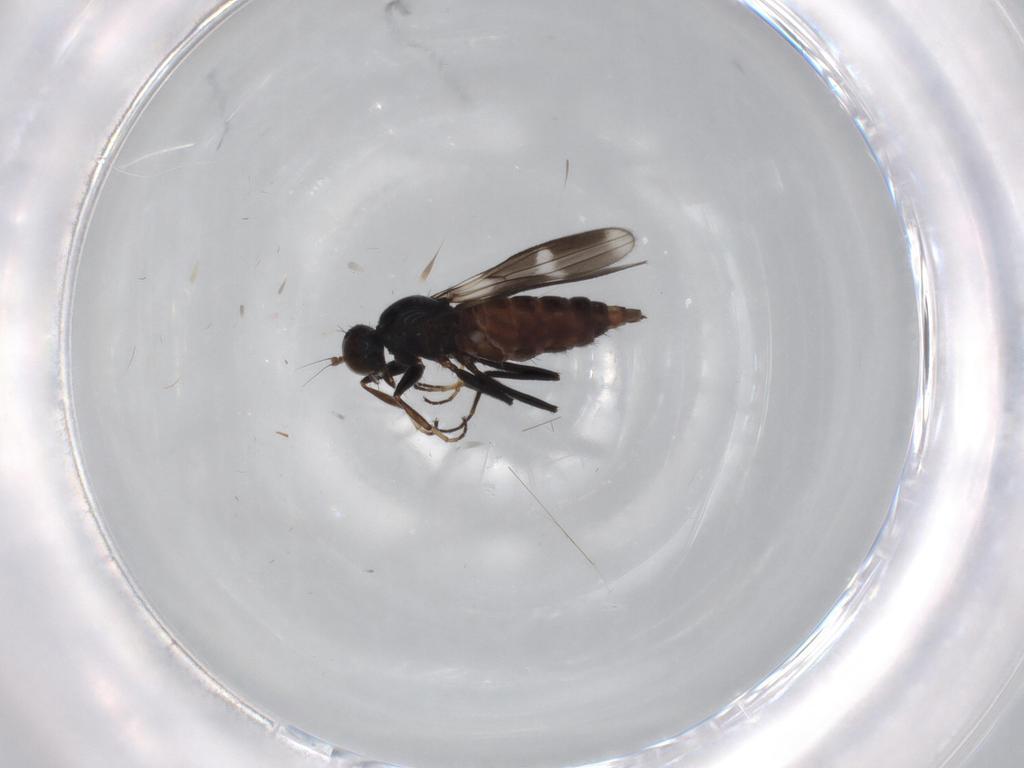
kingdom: Animalia
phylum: Arthropoda
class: Insecta
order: Diptera
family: Hybotidae
